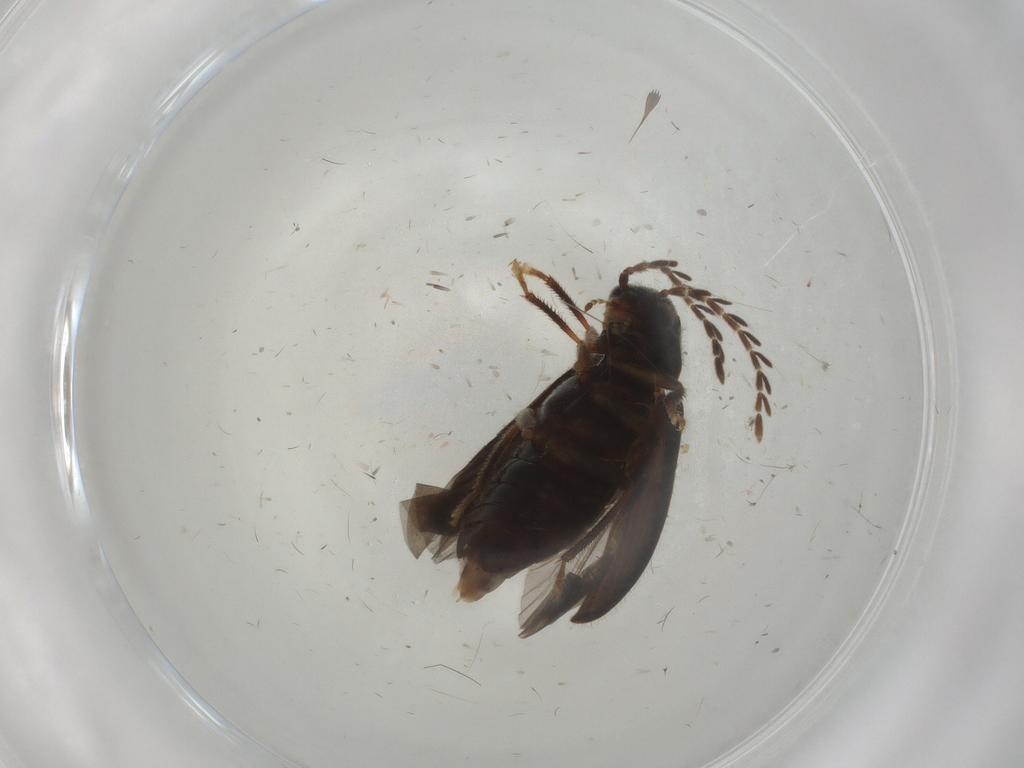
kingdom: Animalia
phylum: Arthropoda
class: Insecta
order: Coleoptera
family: Ptilodactylidae
